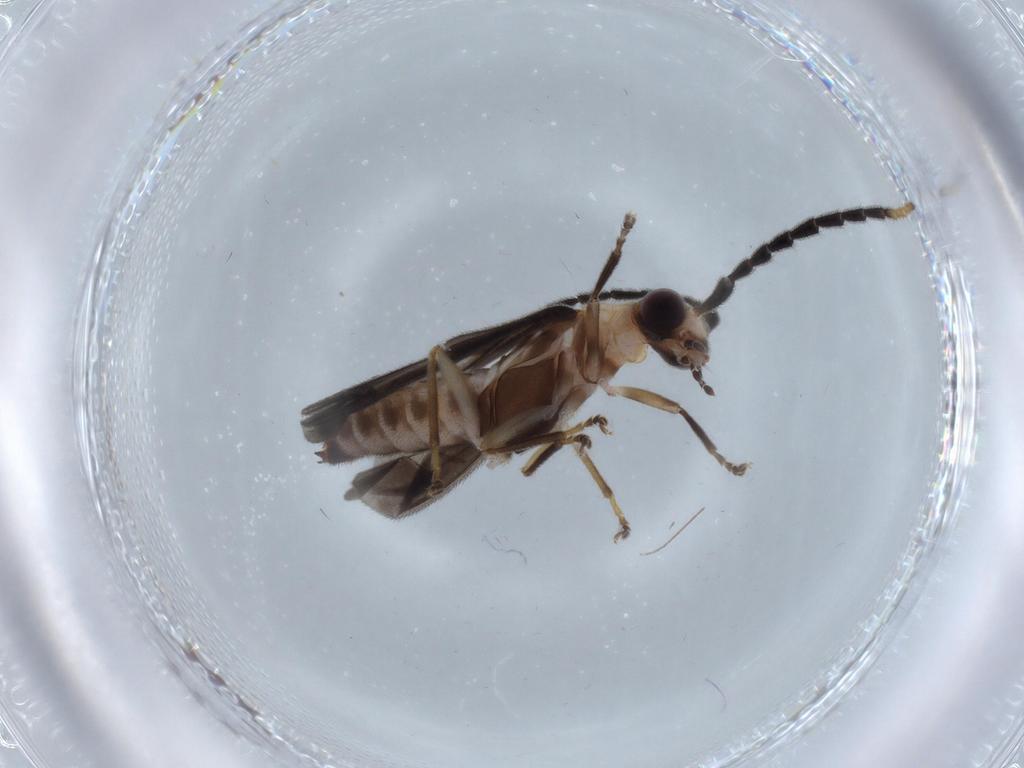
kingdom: Animalia
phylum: Arthropoda
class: Insecta
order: Coleoptera
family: Cantharidae
